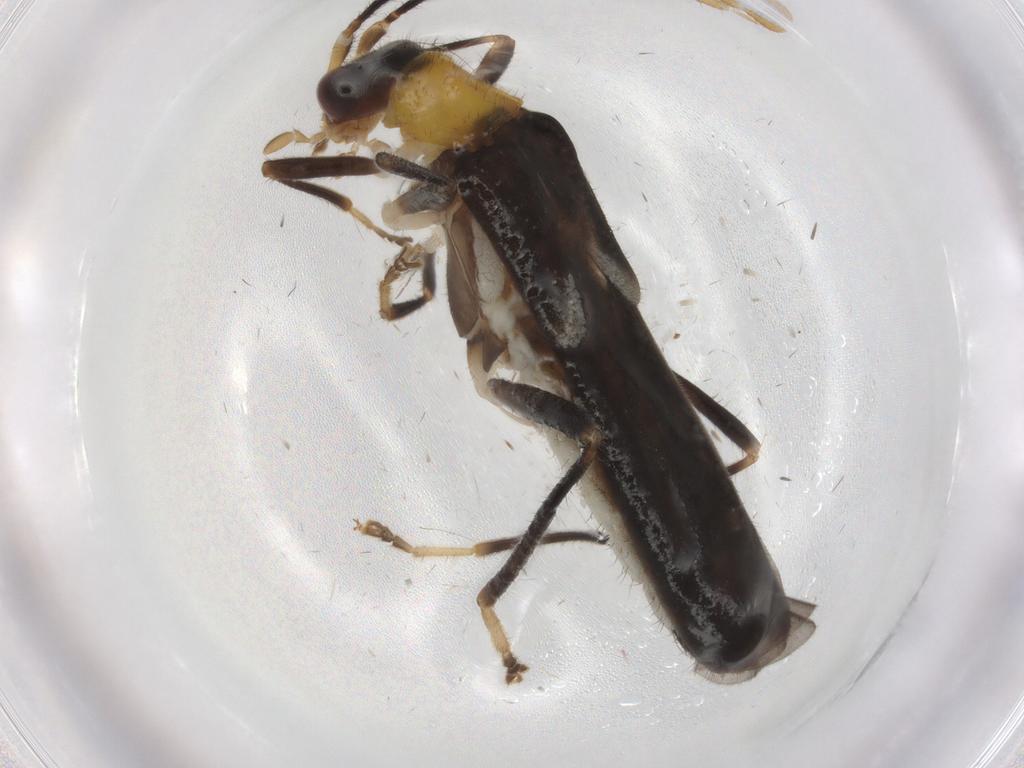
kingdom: Animalia
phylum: Arthropoda
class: Insecta
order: Coleoptera
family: Cantharidae
